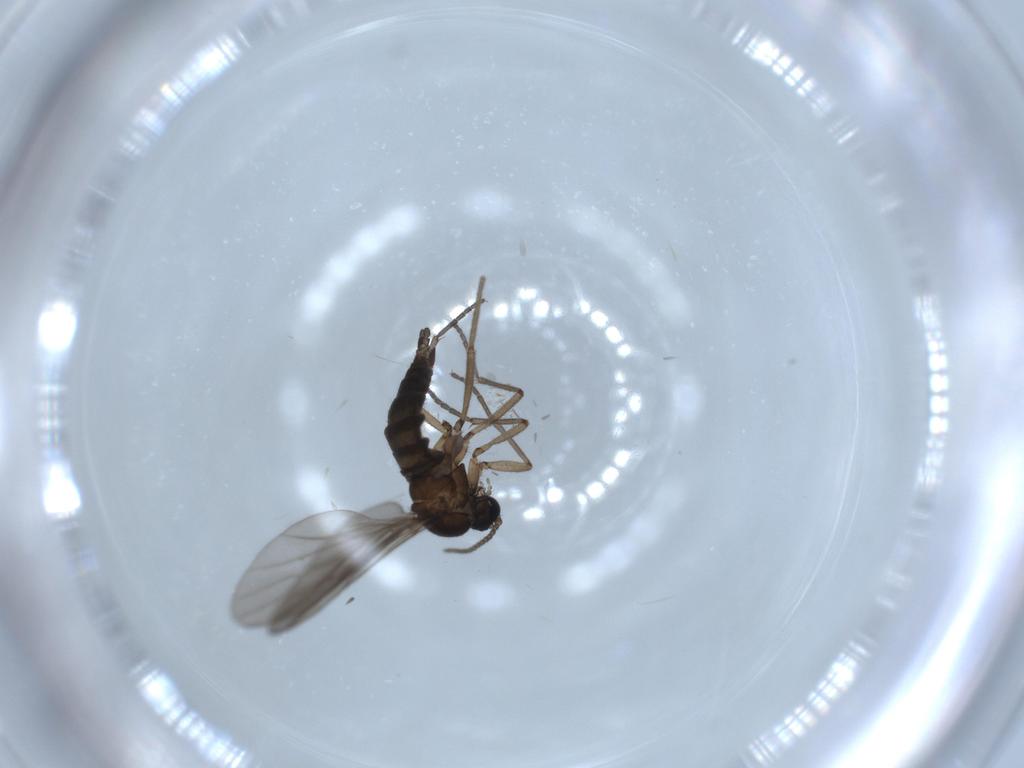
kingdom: Animalia
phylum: Arthropoda
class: Insecta
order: Diptera
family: Sciaridae
